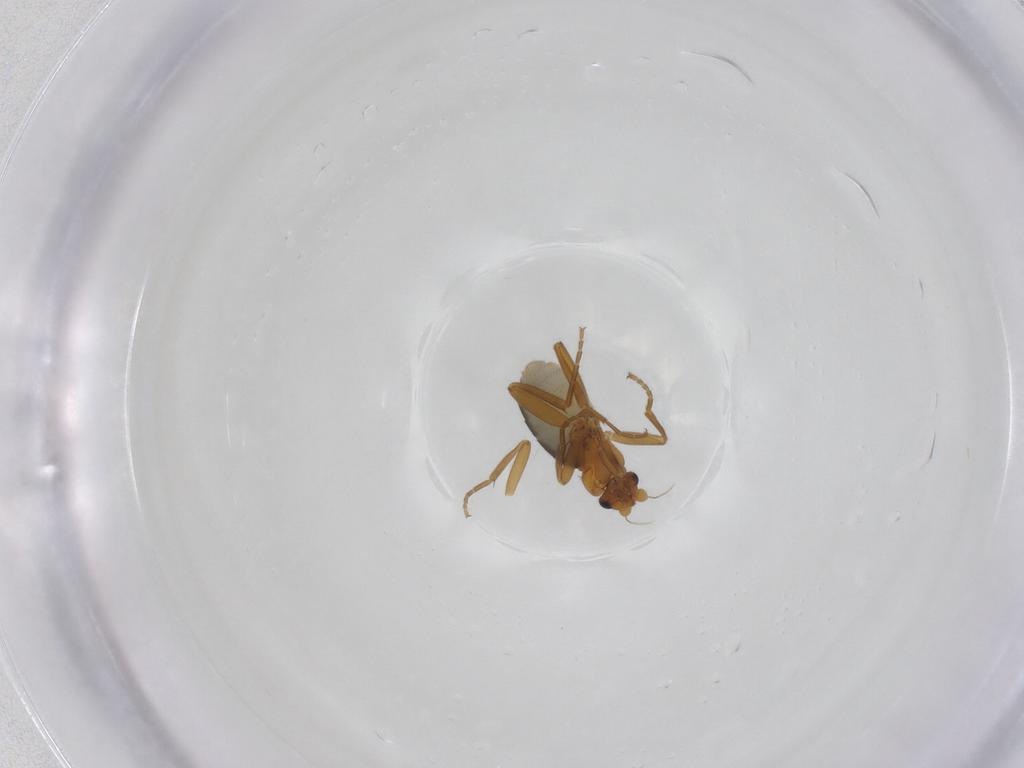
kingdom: Animalia
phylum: Arthropoda
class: Insecta
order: Diptera
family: Phoridae
